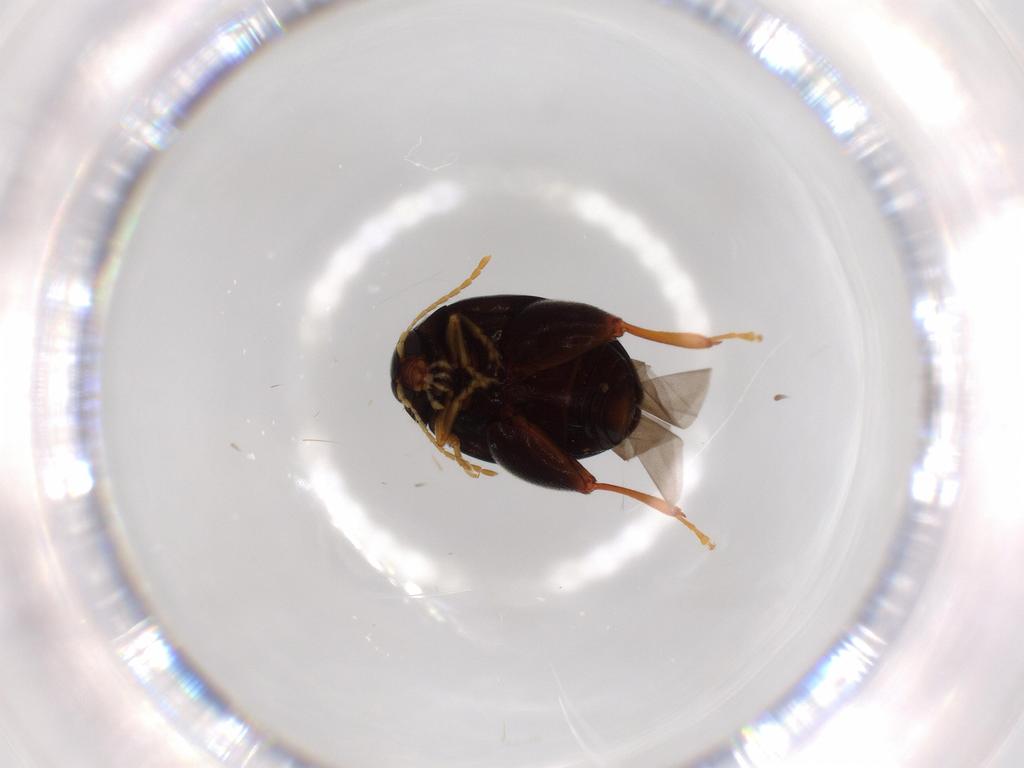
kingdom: Animalia
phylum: Arthropoda
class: Insecta
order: Coleoptera
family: Chrysomelidae
